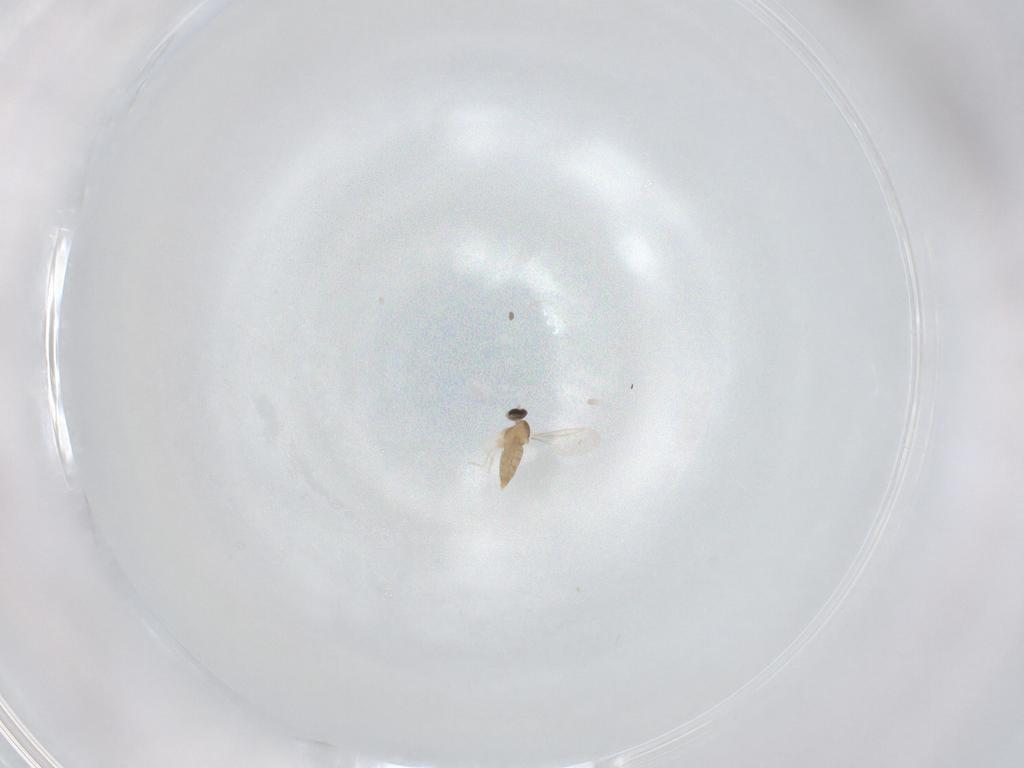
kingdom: Animalia
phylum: Arthropoda
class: Insecta
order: Diptera
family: Cecidomyiidae
